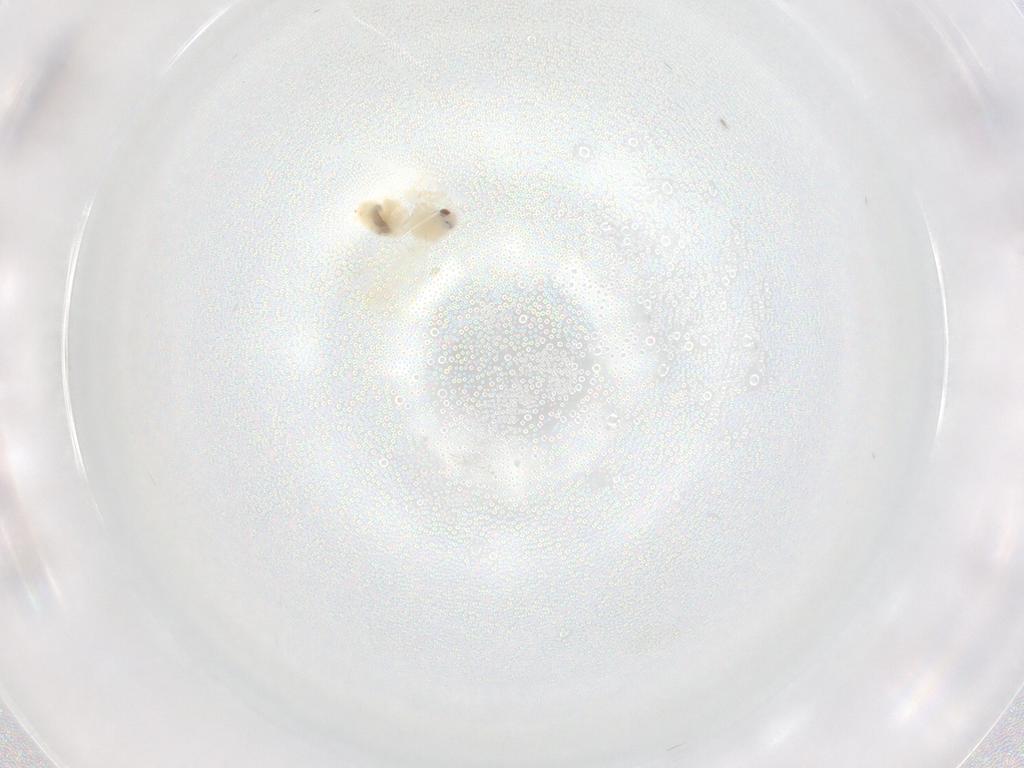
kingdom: Animalia
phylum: Arthropoda
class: Insecta
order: Hemiptera
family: Aleyrodidae
